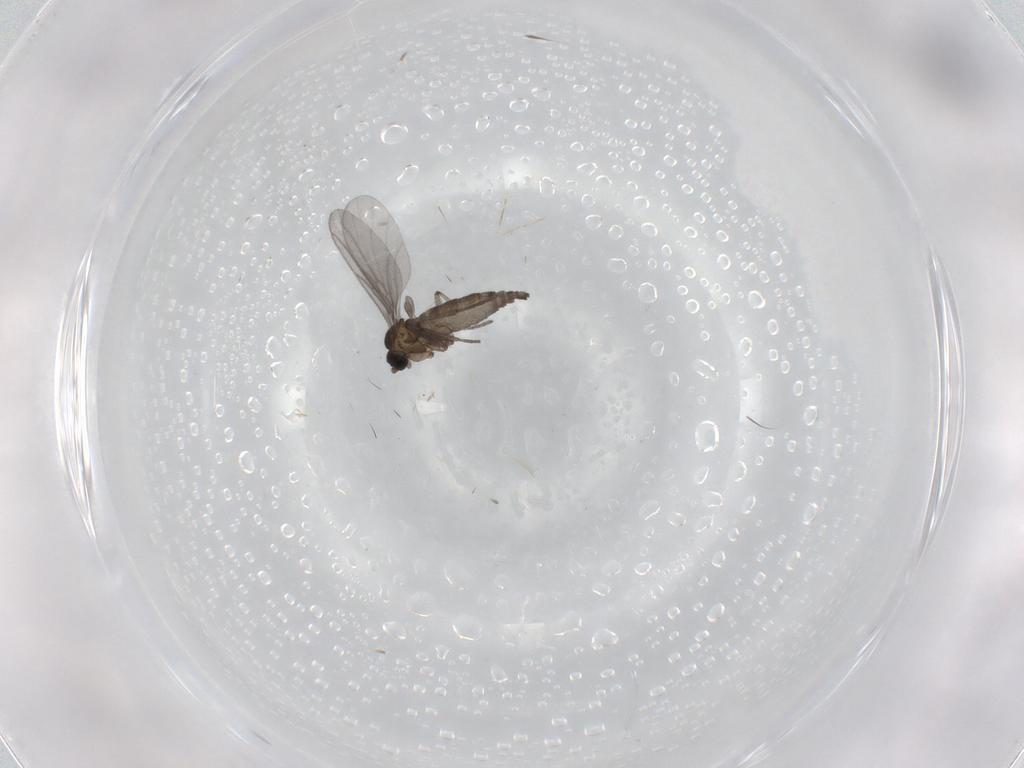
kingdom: Animalia
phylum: Arthropoda
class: Insecta
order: Diptera
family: Sciaridae
